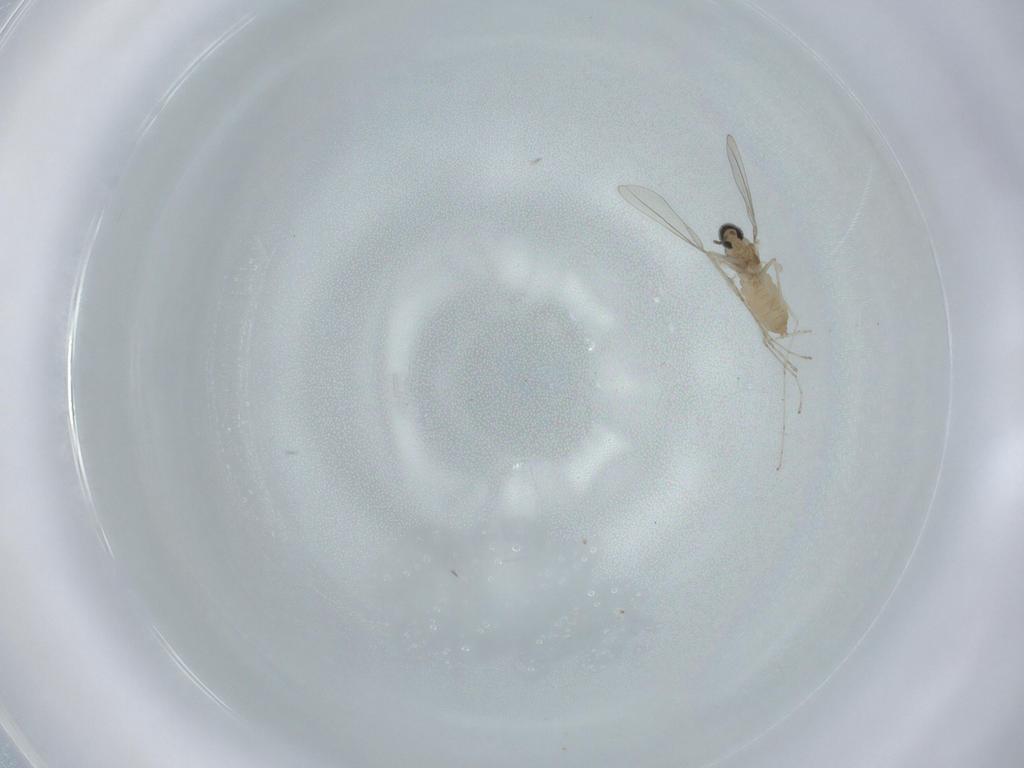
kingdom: Animalia
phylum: Arthropoda
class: Insecta
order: Diptera
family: Cecidomyiidae
